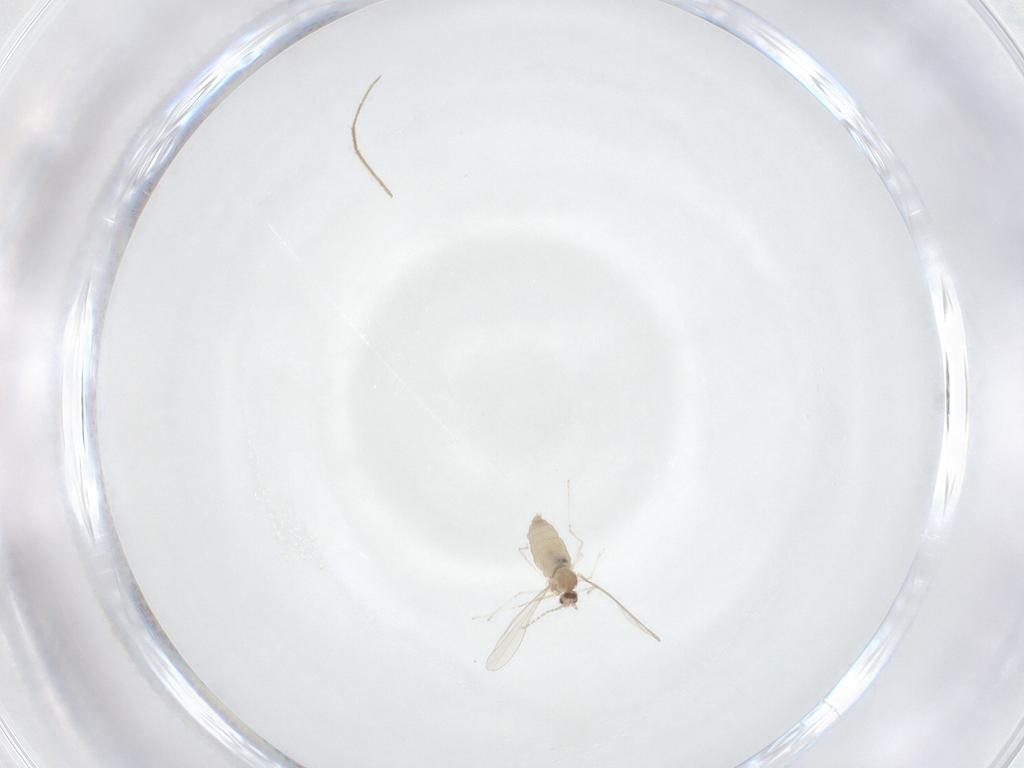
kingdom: Animalia
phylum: Arthropoda
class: Insecta
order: Diptera
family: Cecidomyiidae
